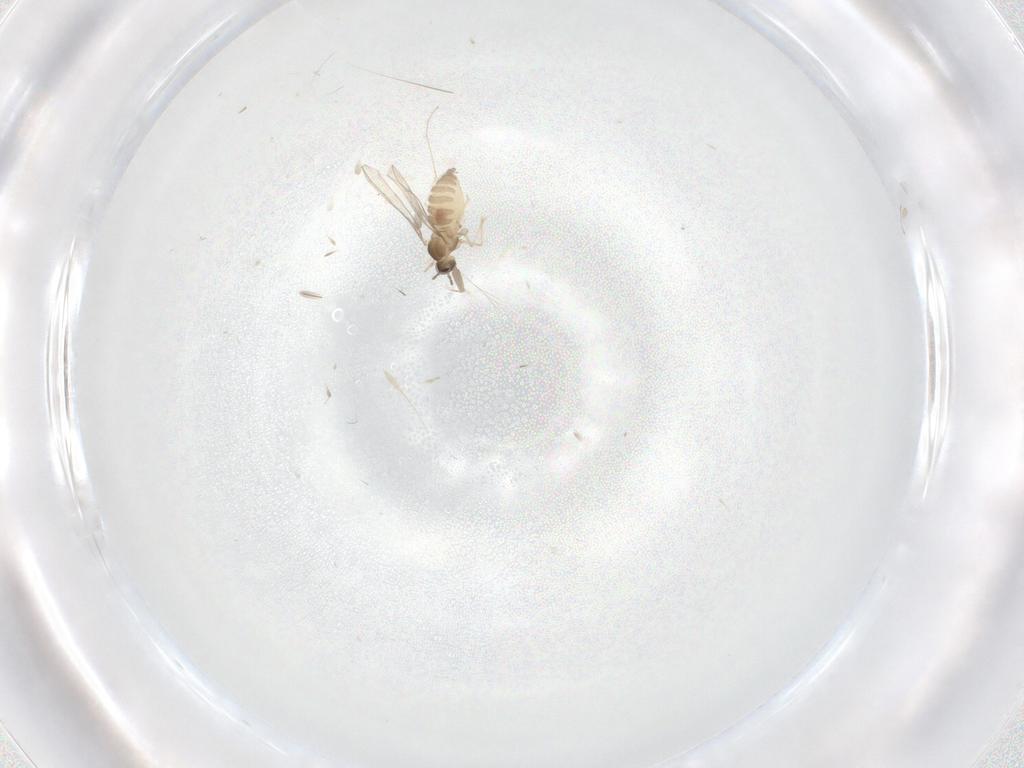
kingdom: Animalia
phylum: Arthropoda
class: Insecta
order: Diptera
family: Cecidomyiidae
